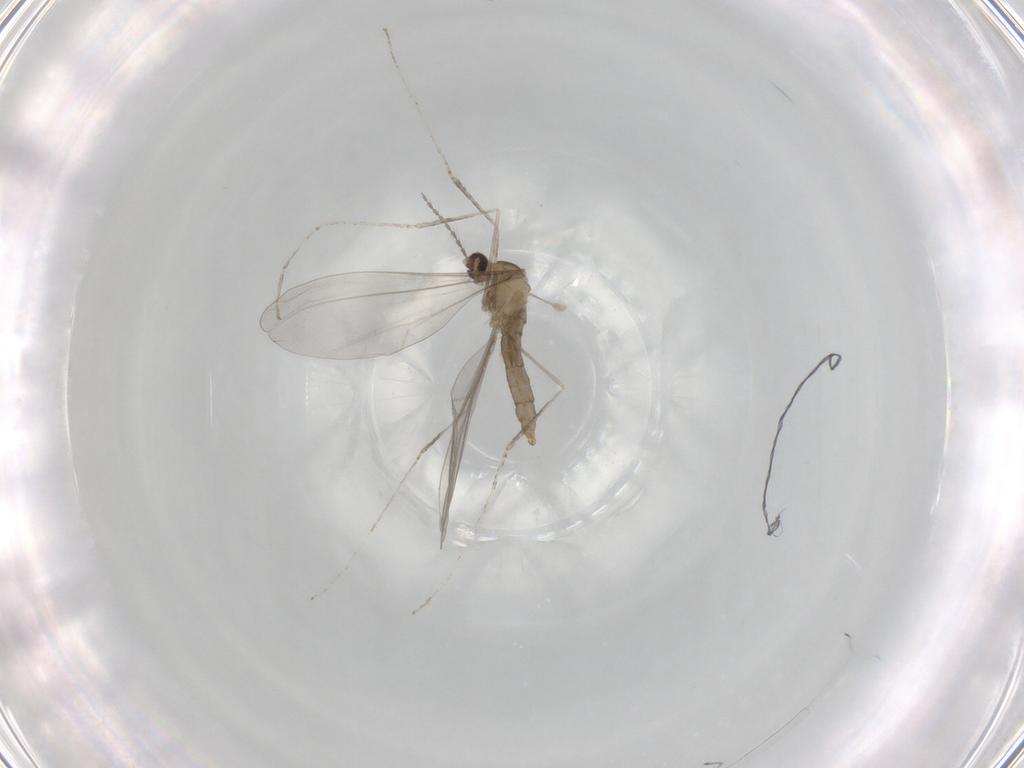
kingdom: Animalia
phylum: Arthropoda
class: Insecta
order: Diptera
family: Cecidomyiidae
